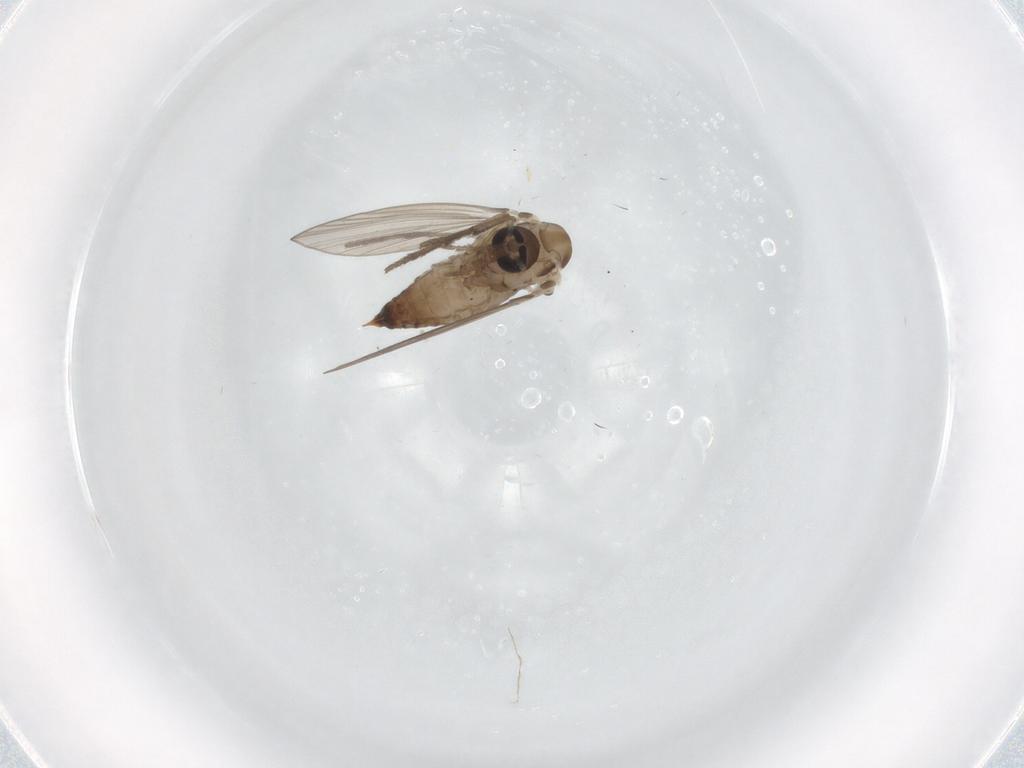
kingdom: Animalia
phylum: Arthropoda
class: Insecta
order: Diptera
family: Psychodidae
